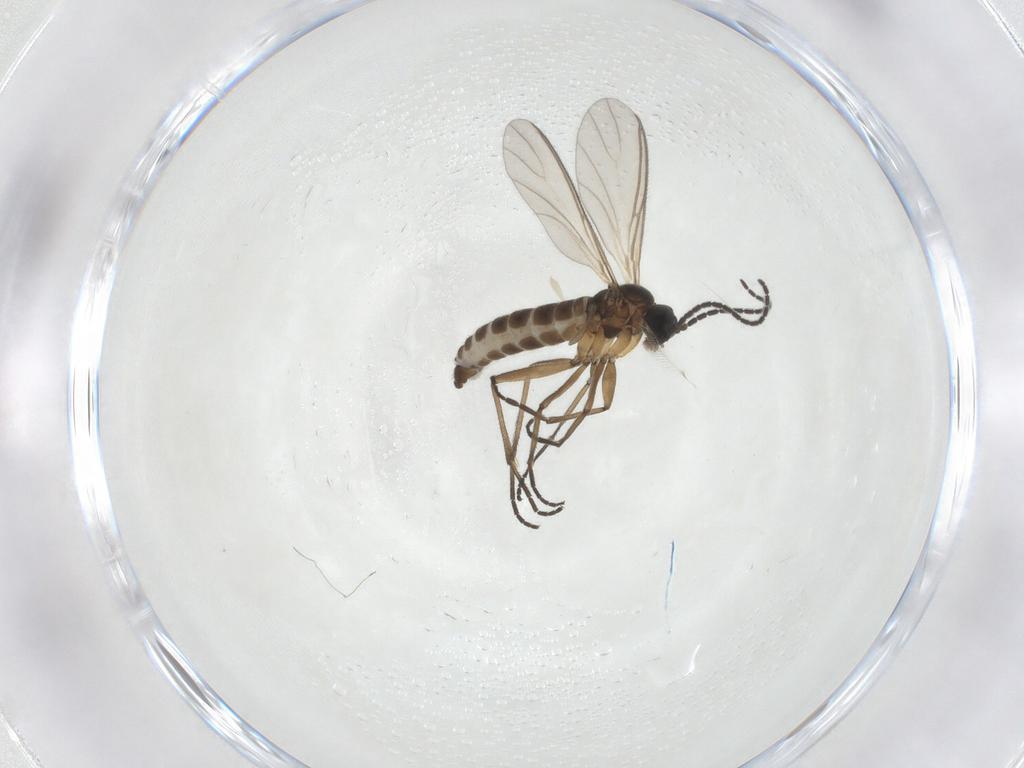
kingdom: Animalia
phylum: Arthropoda
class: Insecta
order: Diptera
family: Sciaridae
